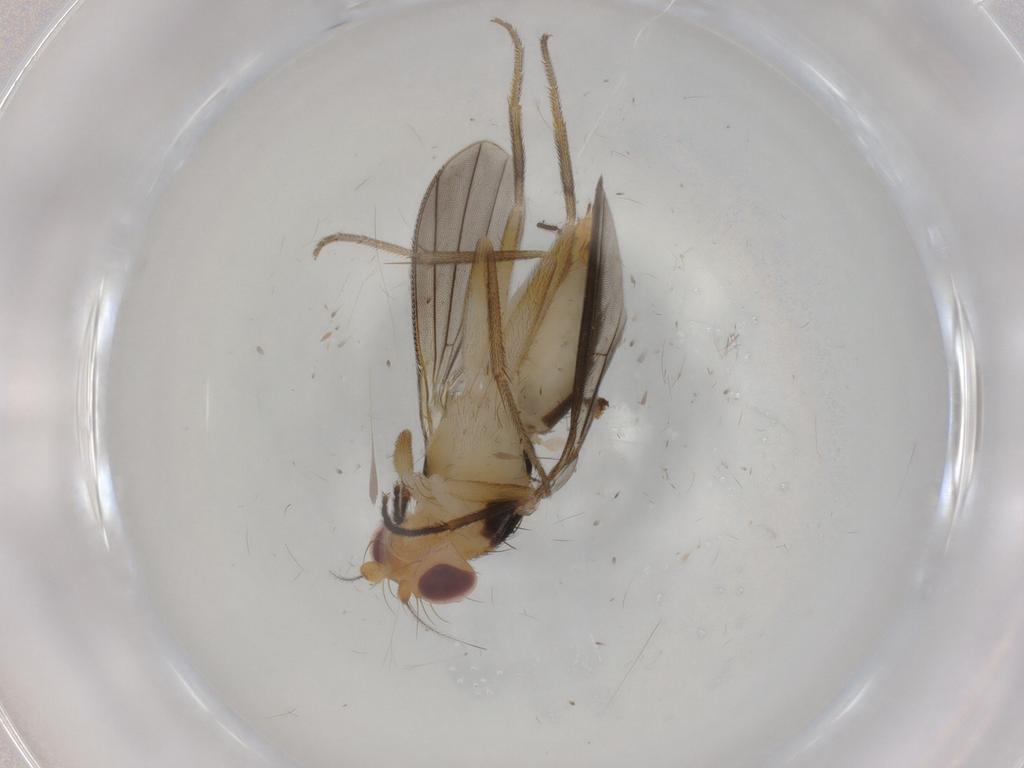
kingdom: Animalia
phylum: Arthropoda
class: Insecta
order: Diptera
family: Clusiidae
